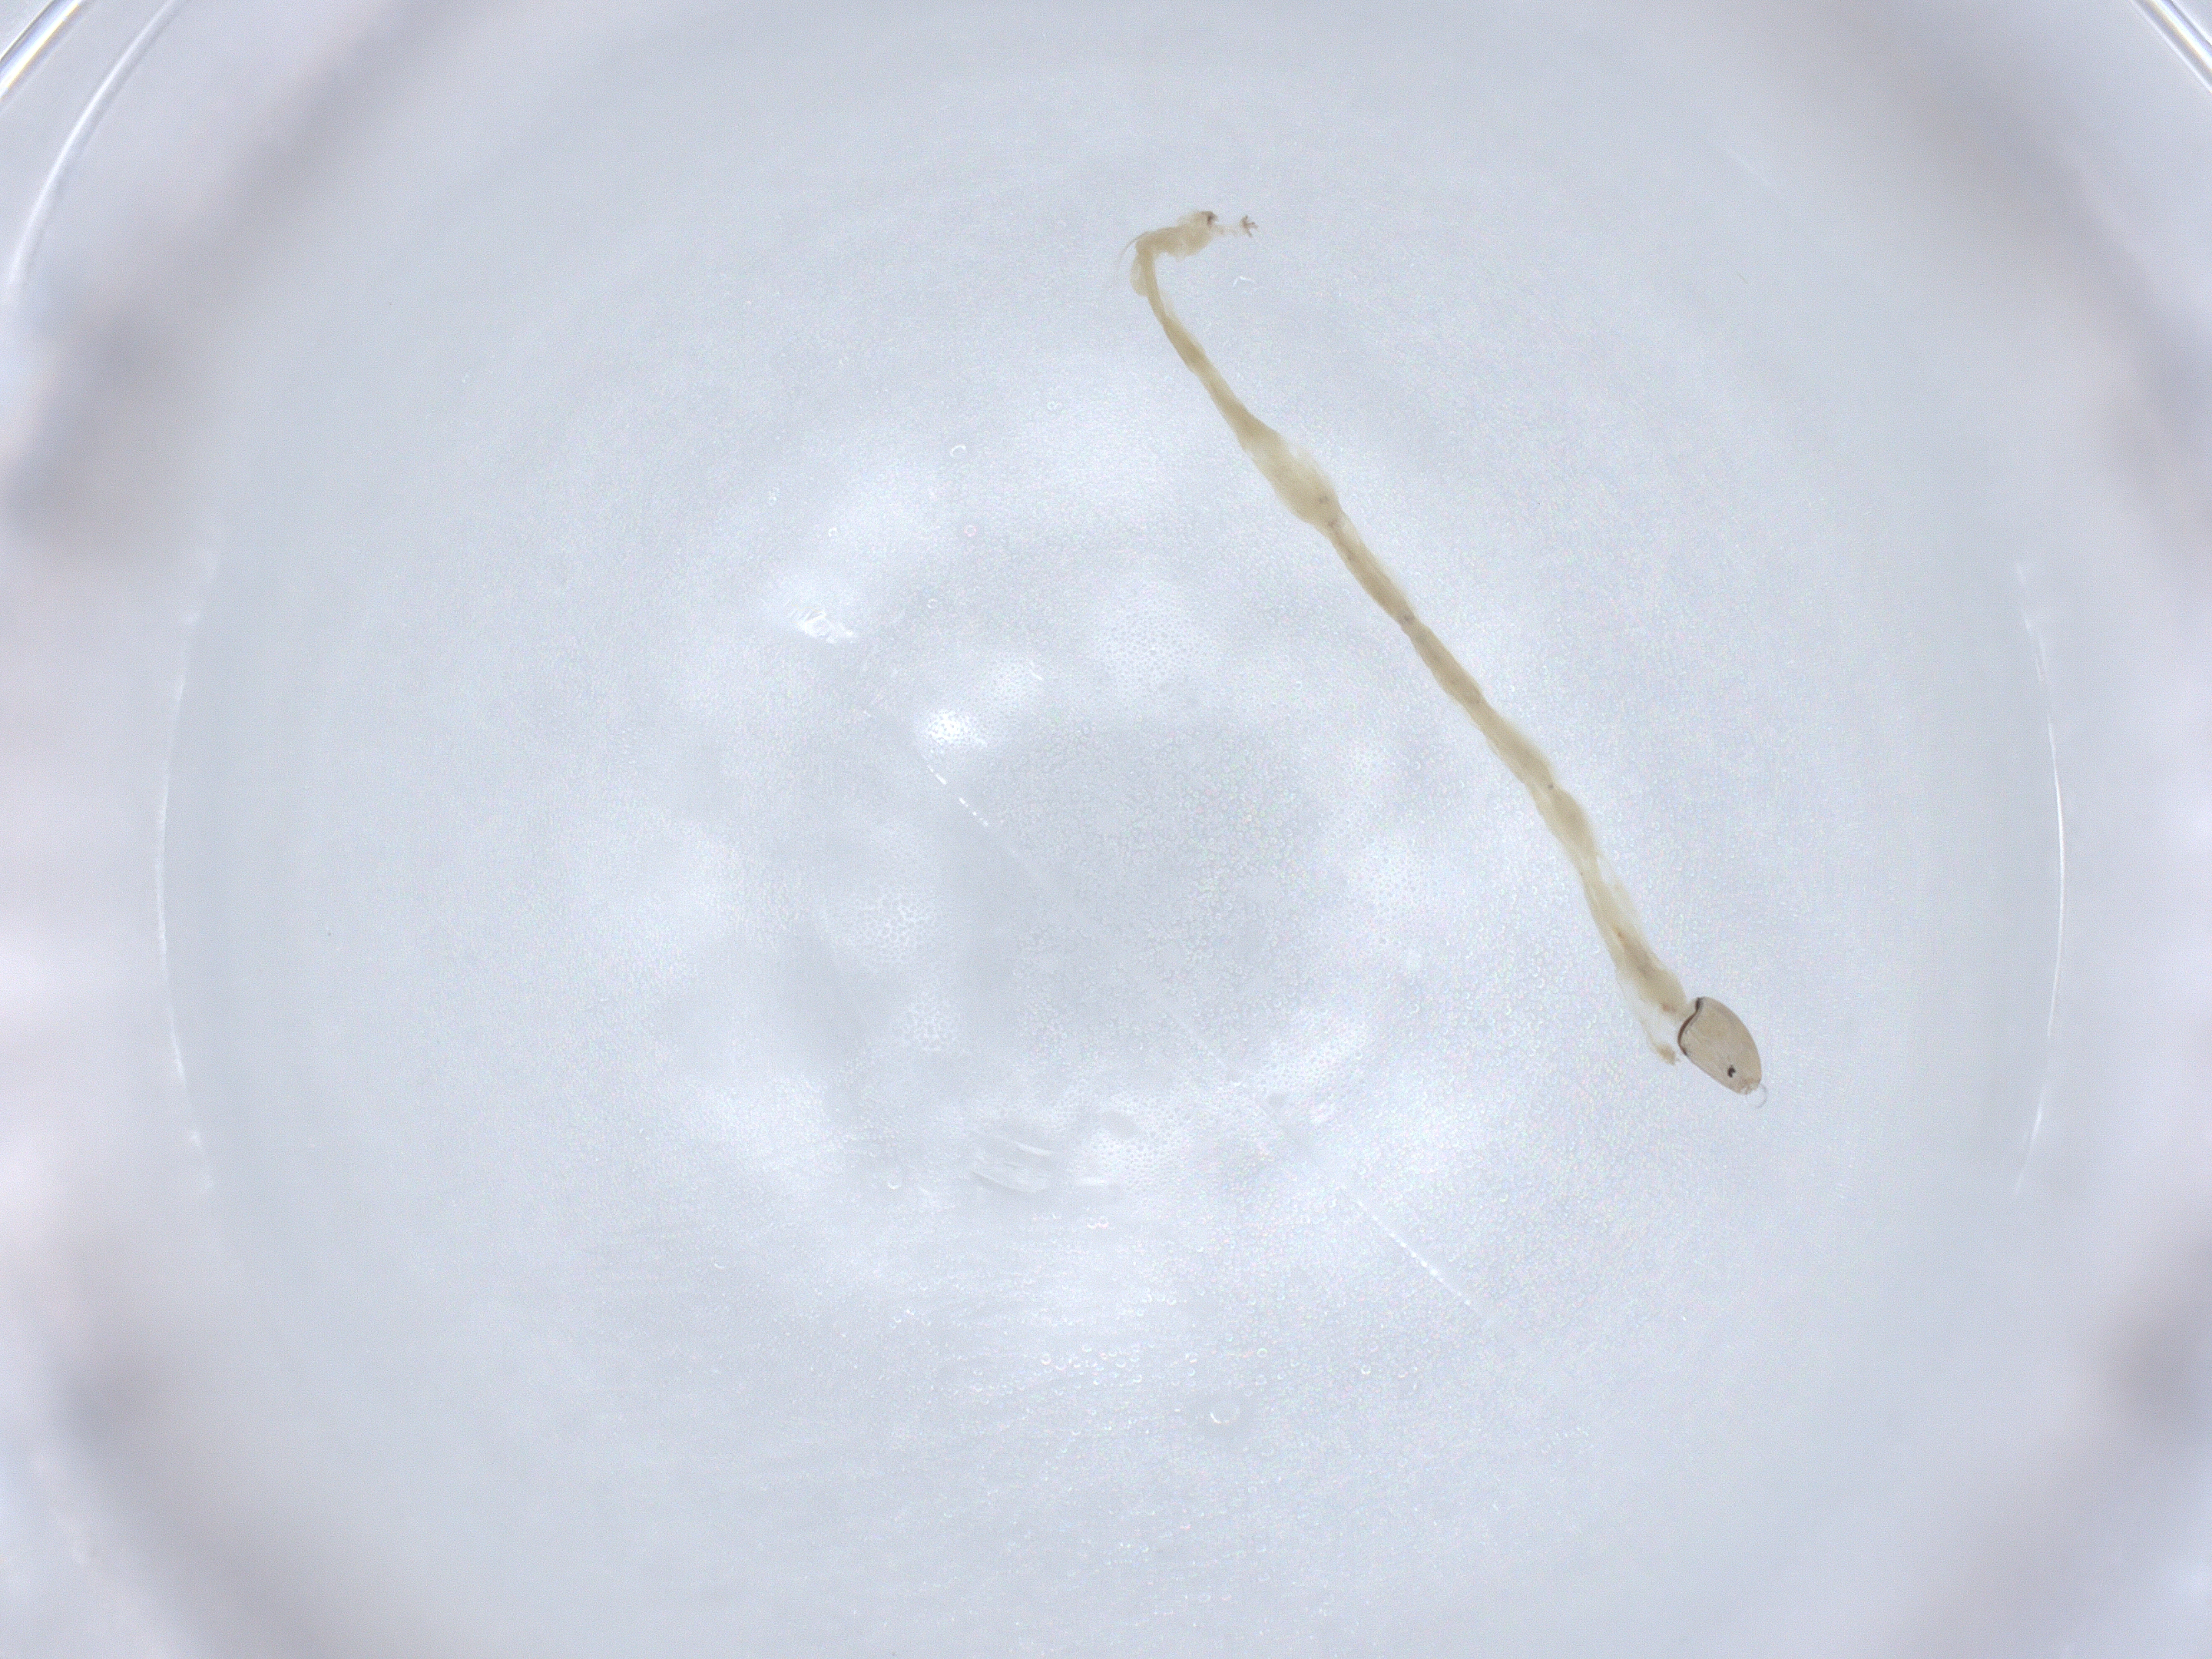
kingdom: Animalia
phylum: Arthropoda
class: Insecta
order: Diptera
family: Chironomidae
